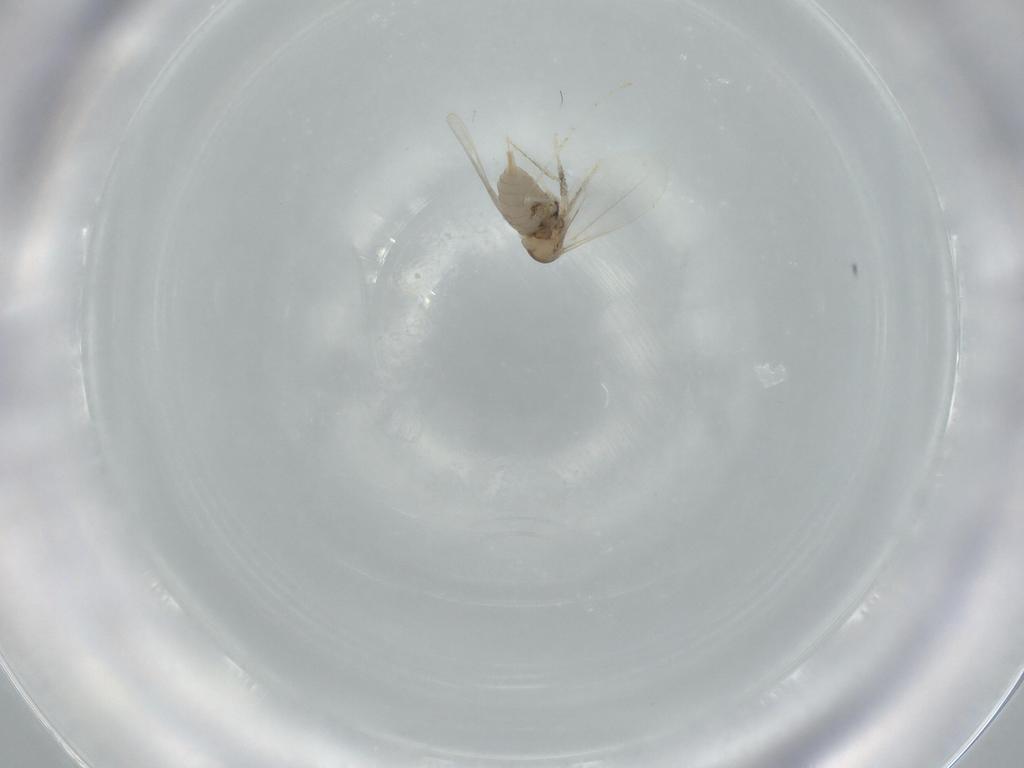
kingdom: Animalia
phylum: Arthropoda
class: Insecta
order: Diptera
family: Cecidomyiidae
